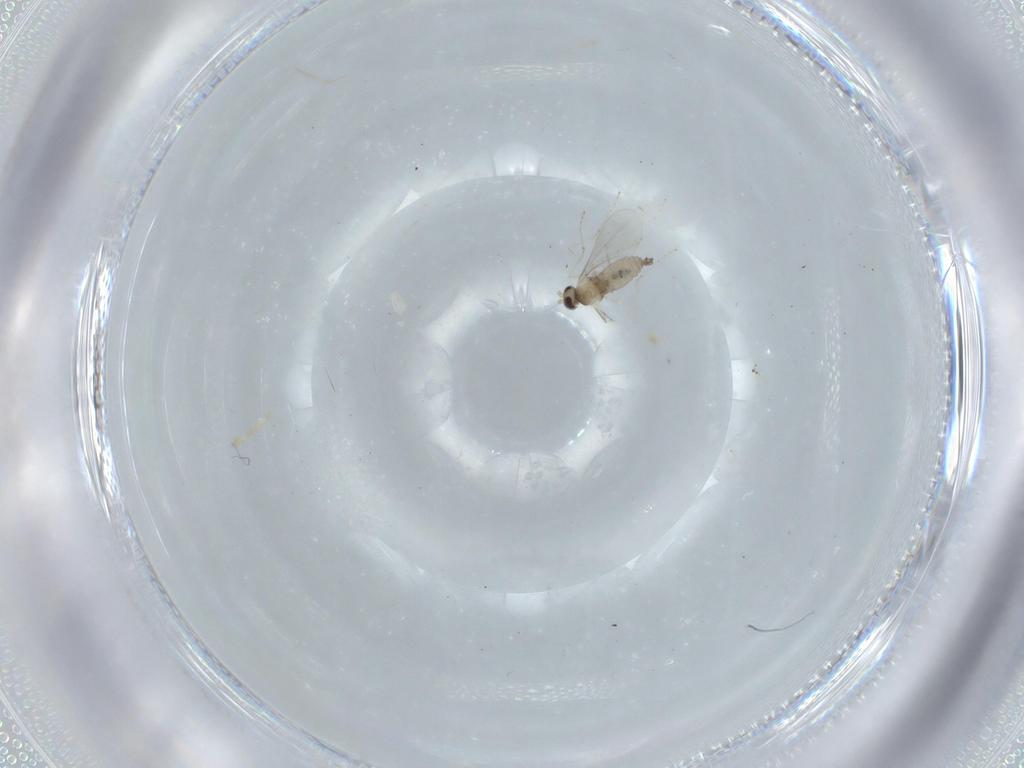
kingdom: Animalia
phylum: Arthropoda
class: Insecta
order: Diptera
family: Cecidomyiidae
